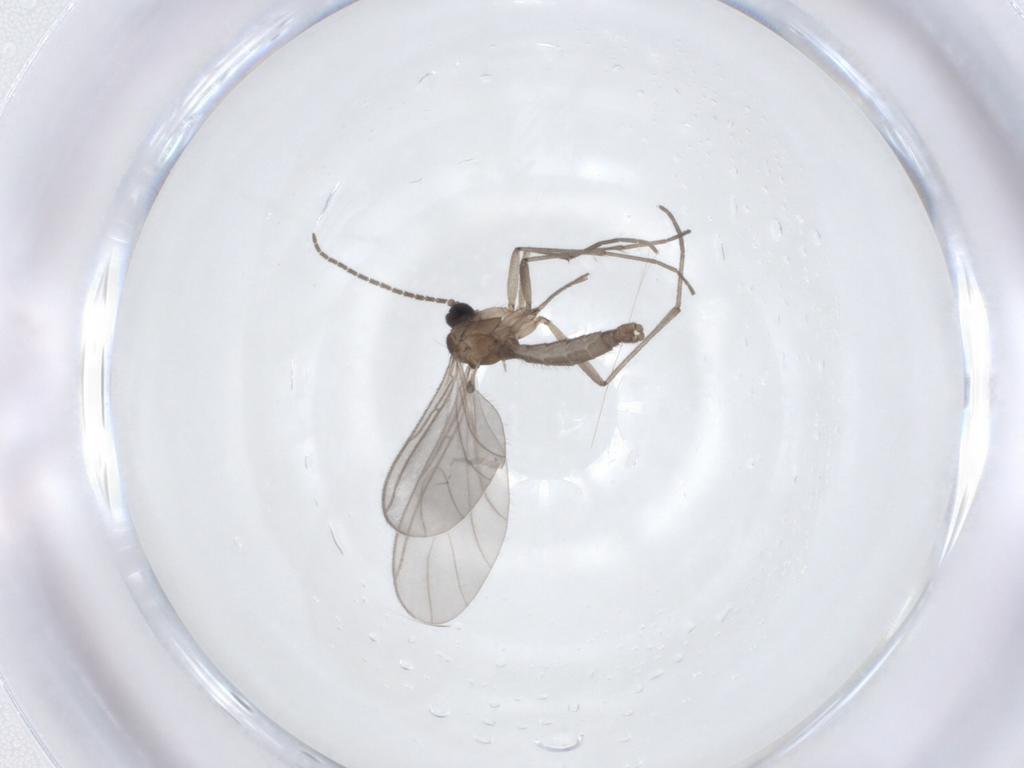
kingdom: Animalia
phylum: Arthropoda
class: Insecta
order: Diptera
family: Sciaridae
